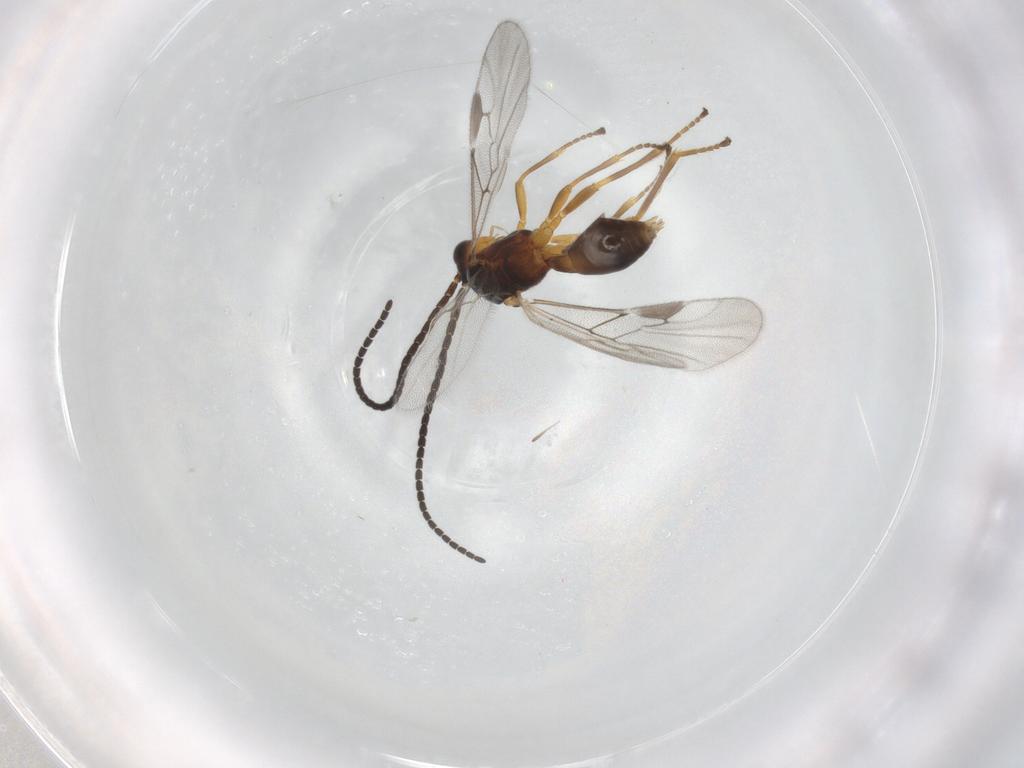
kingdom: Animalia
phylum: Arthropoda
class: Insecta
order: Hymenoptera
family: Braconidae
